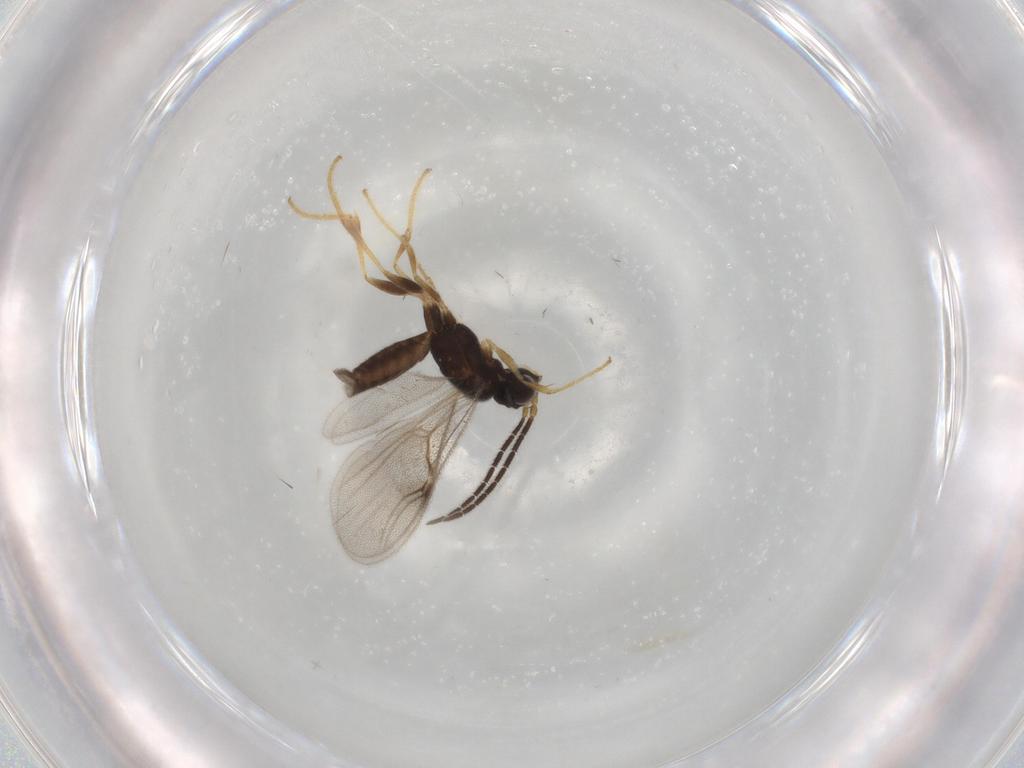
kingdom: Animalia
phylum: Arthropoda
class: Insecta
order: Hymenoptera
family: Dryinidae
